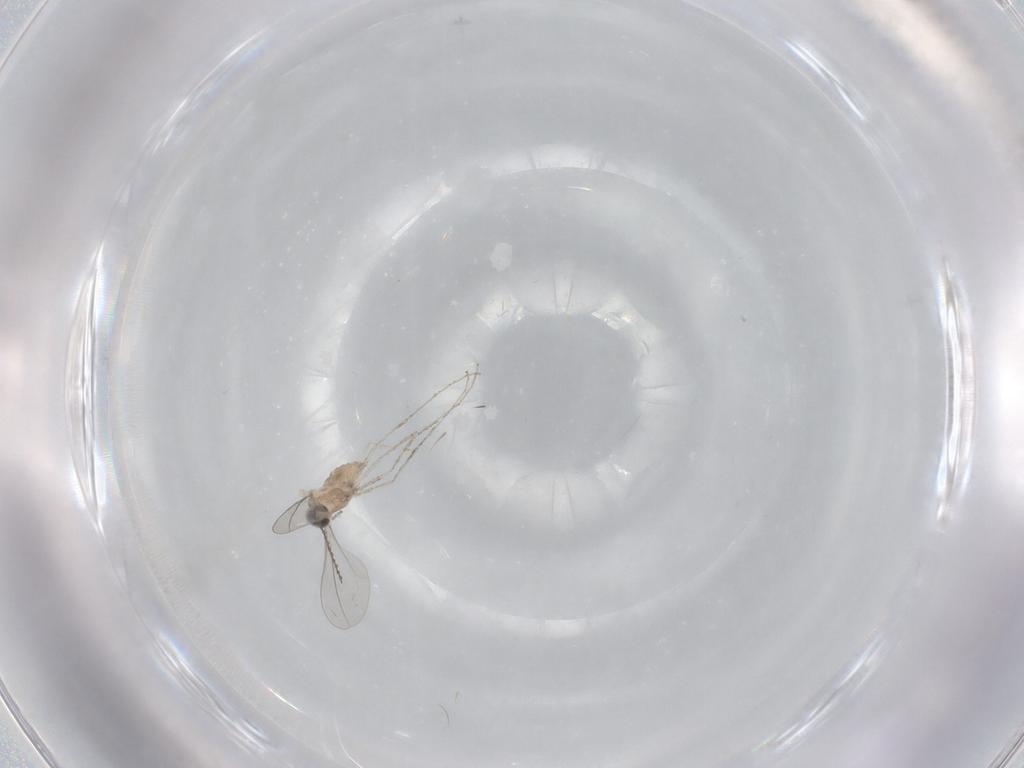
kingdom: Animalia
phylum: Arthropoda
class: Insecta
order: Diptera
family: Cecidomyiidae
